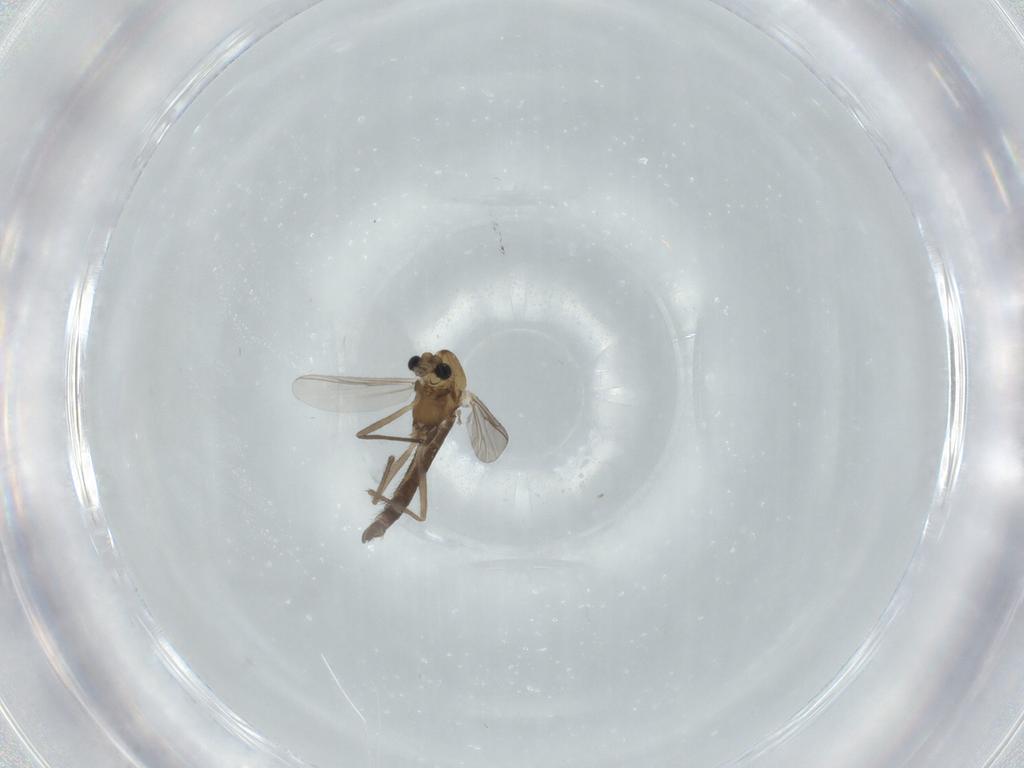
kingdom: Animalia
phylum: Arthropoda
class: Insecta
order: Diptera
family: Chironomidae
